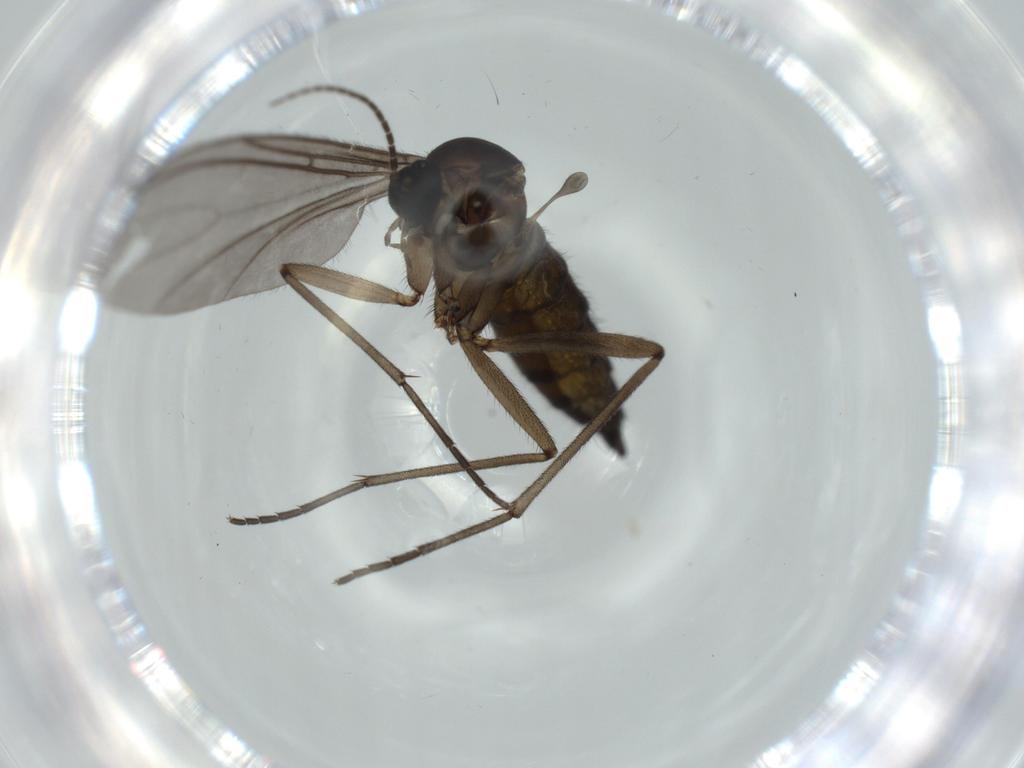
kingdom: Animalia
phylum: Arthropoda
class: Insecta
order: Diptera
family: Sciaridae
